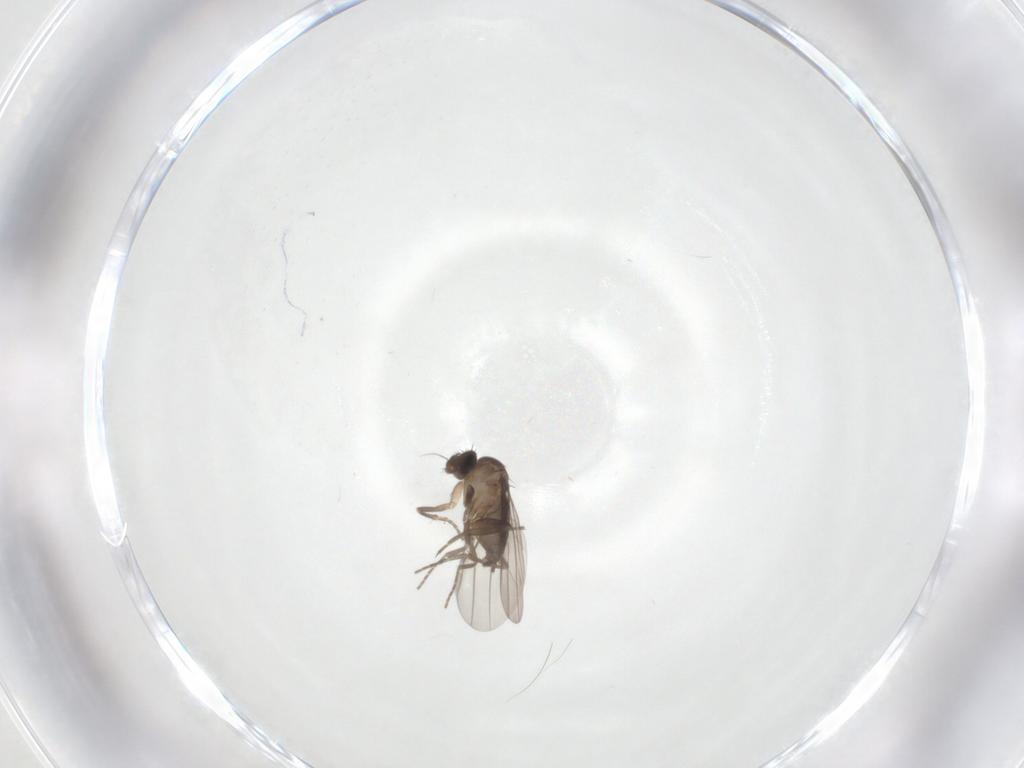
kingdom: Animalia
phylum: Arthropoda
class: Insecta
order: Diptera
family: Phoridae
